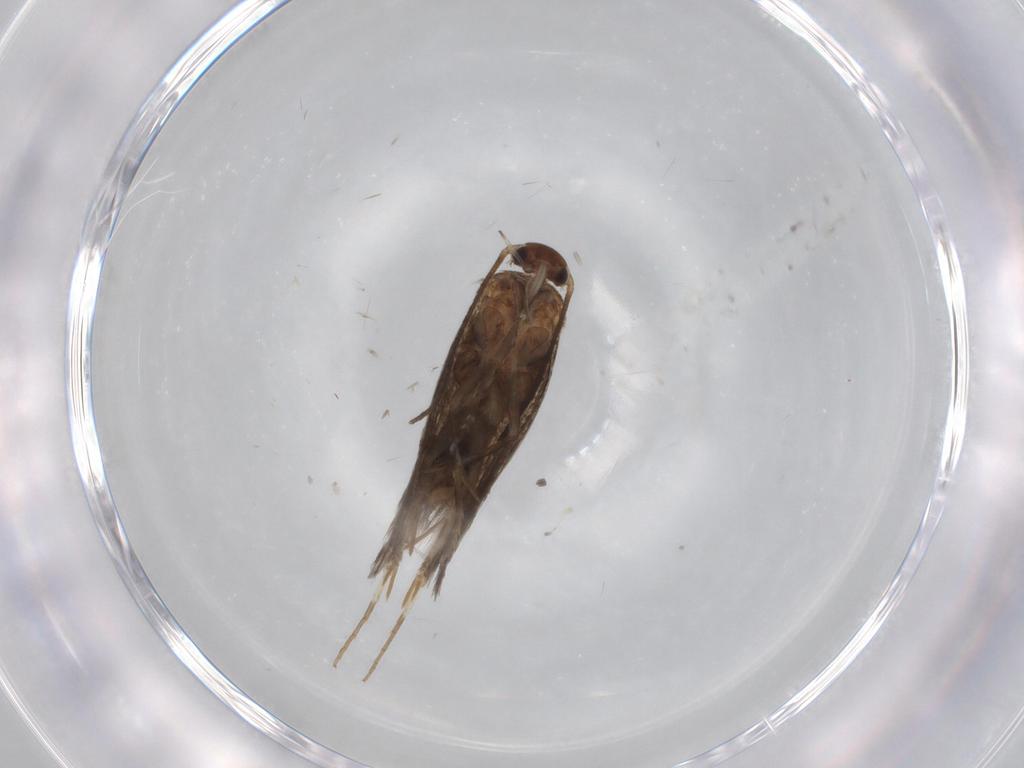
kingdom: Animalia
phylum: Arthropoda
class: Insecta
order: Lepidoptera
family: Elachistidae
